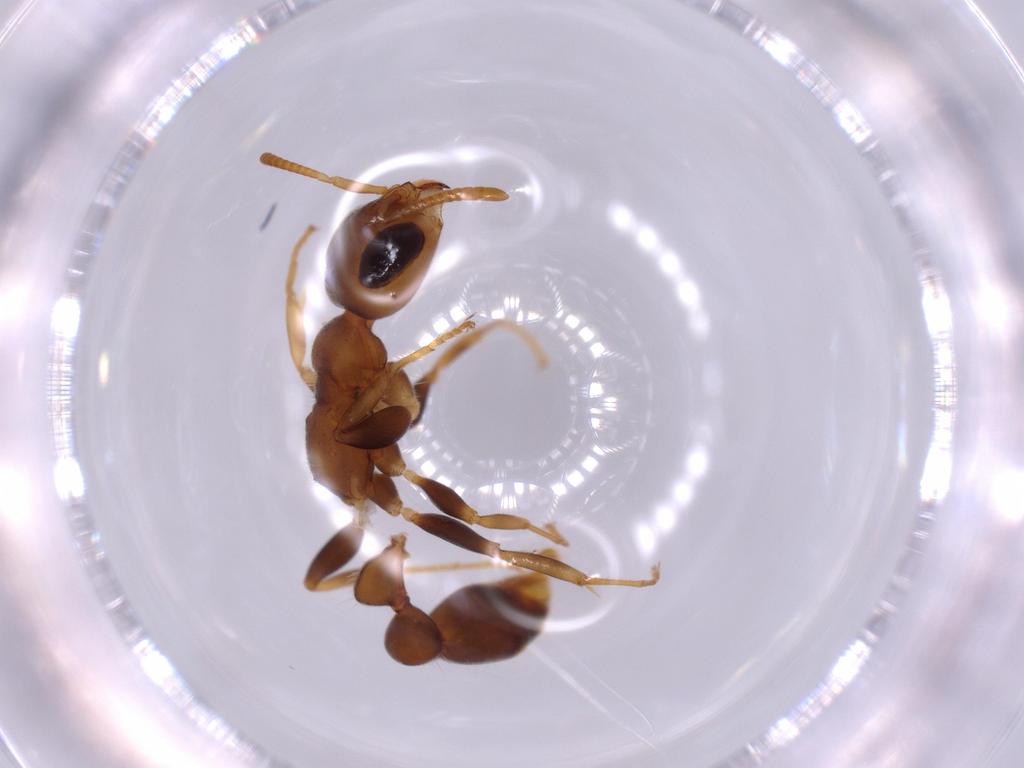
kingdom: Animalia
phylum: Arthropoda
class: Insecta
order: Hymenoptera
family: Formicidae
